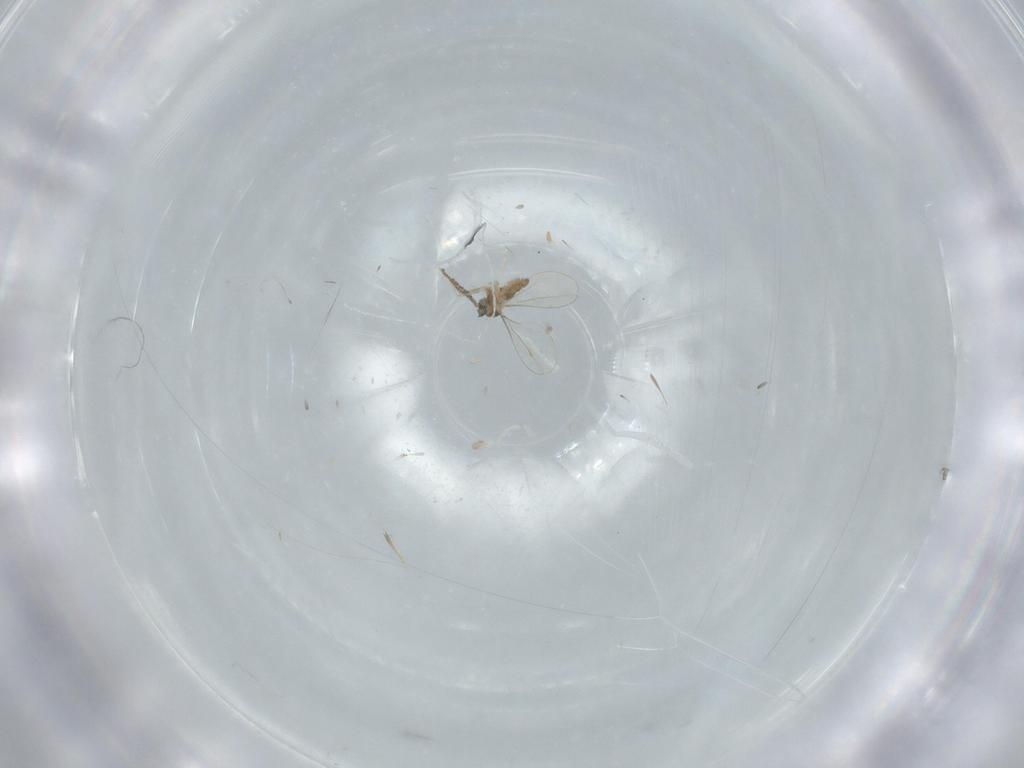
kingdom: Animalia
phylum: Arthropoda
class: Insecta
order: Diptera
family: Cecidomyiidae
